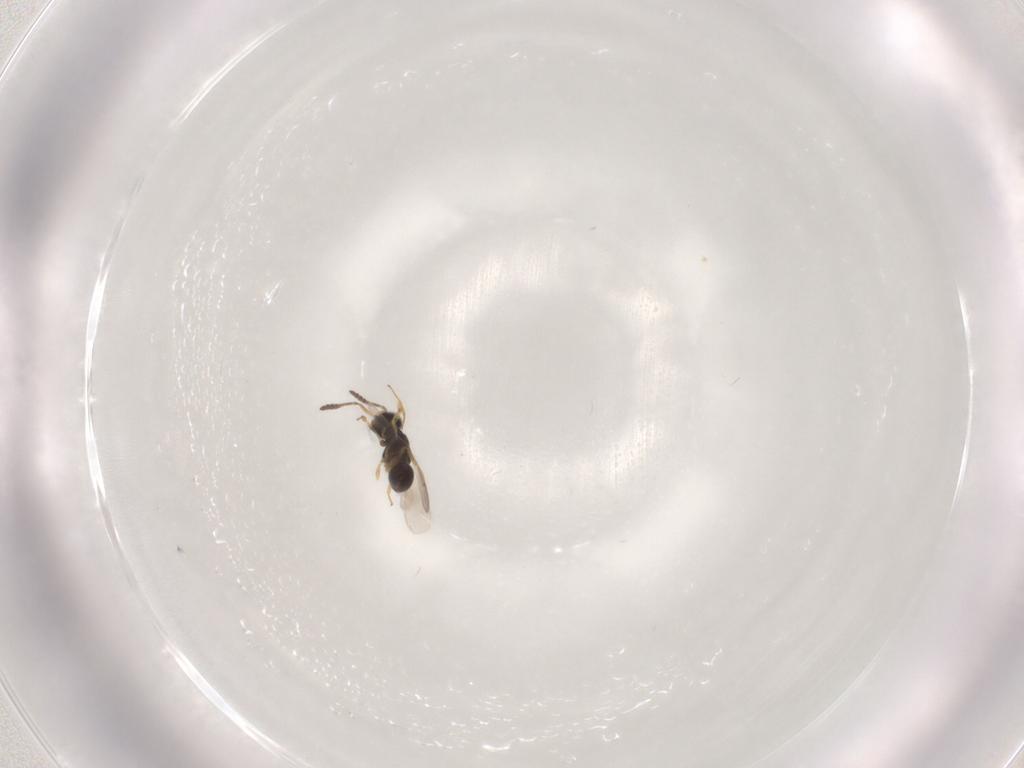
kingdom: Animalia
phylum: Arthropoda
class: Insecta
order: Hymenoptera
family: Scelionidae
